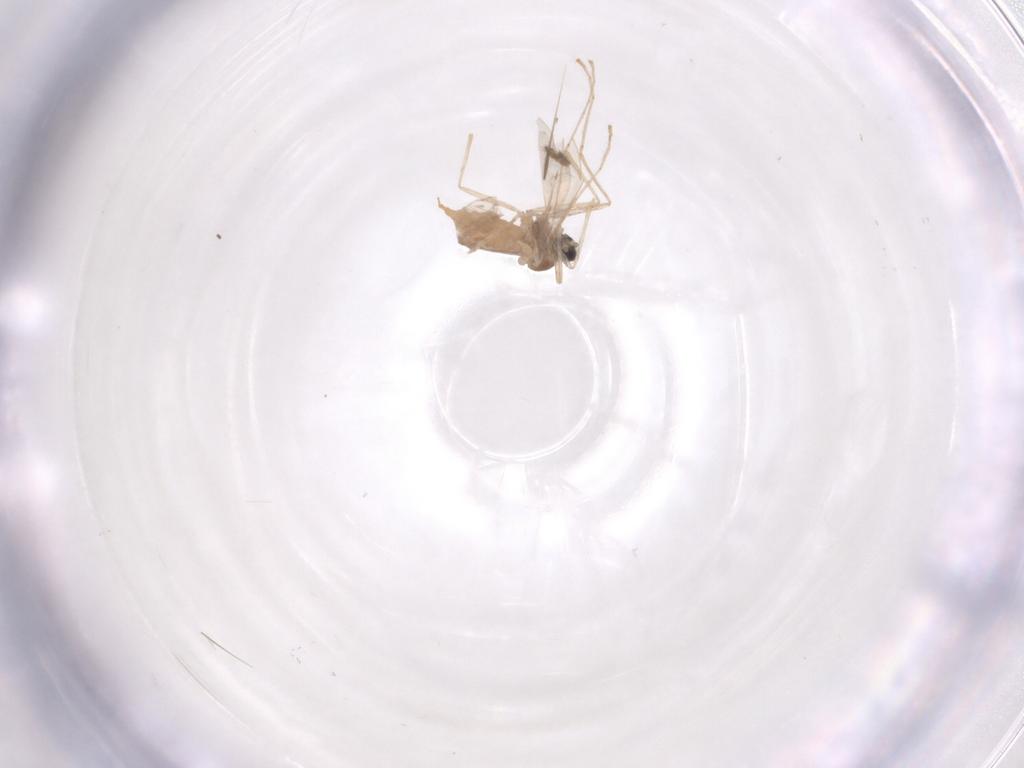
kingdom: Animalia
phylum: Arthropoda
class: Insecta
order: Diptera
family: Cecidomyiidae
